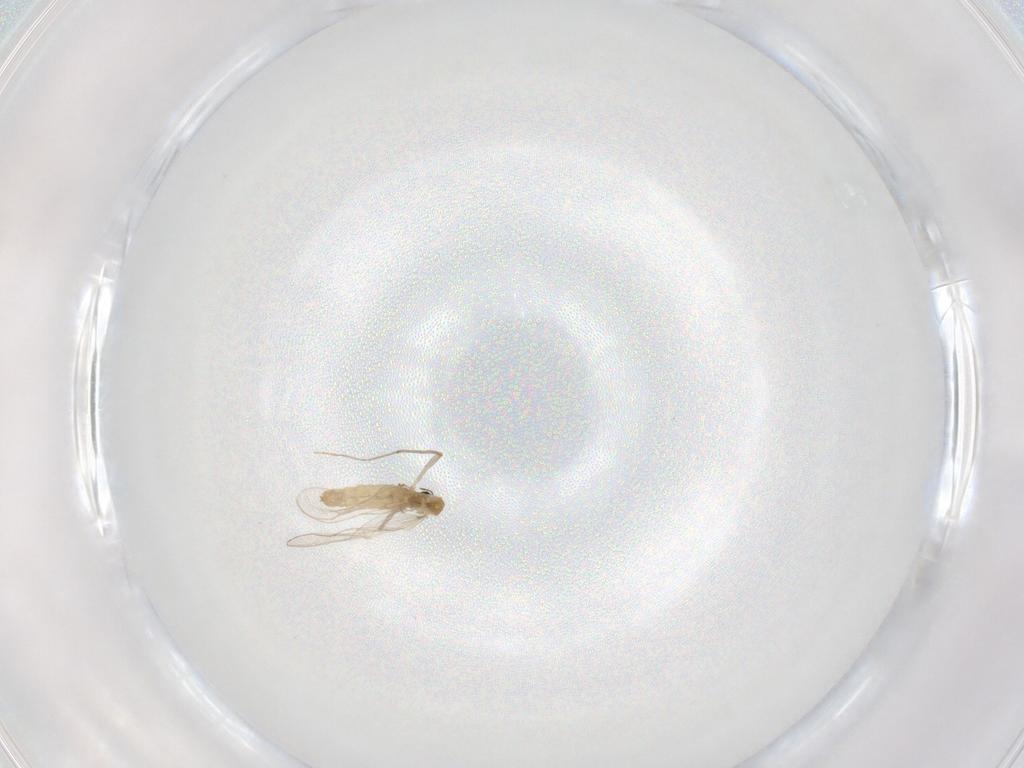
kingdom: Animalia
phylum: Arthropoda
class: Insecta
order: Diptera
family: Chironomidae
